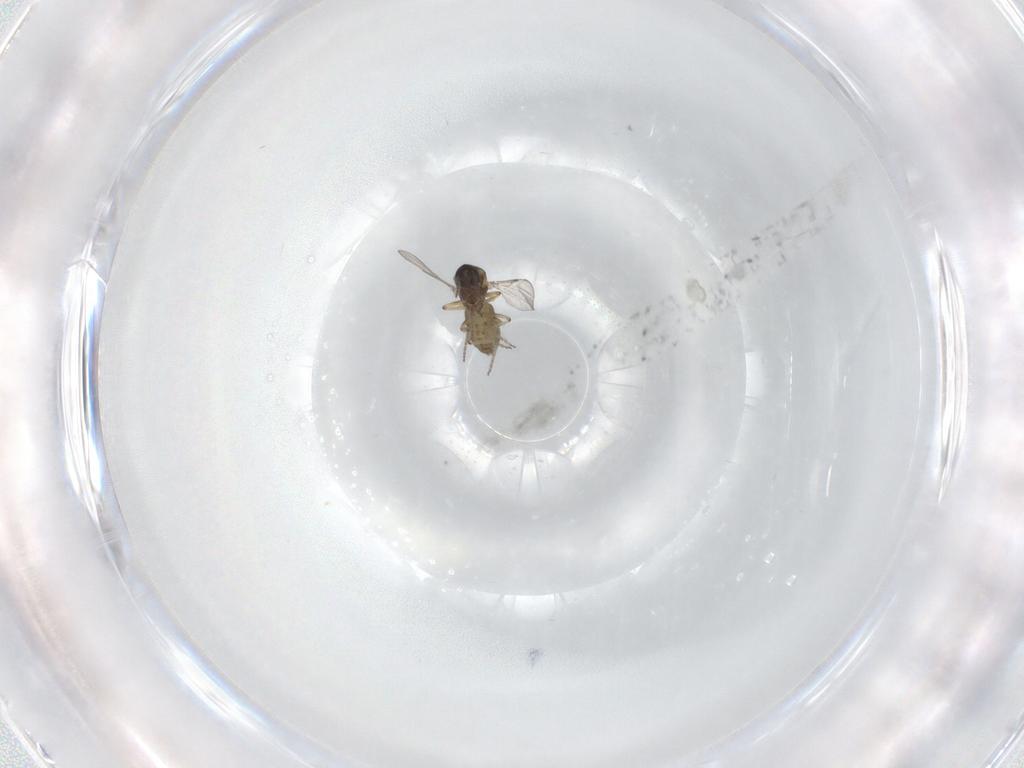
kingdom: Animalia
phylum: Arthropoda
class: Insecta
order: Diptera
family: Ceratopogonidae
